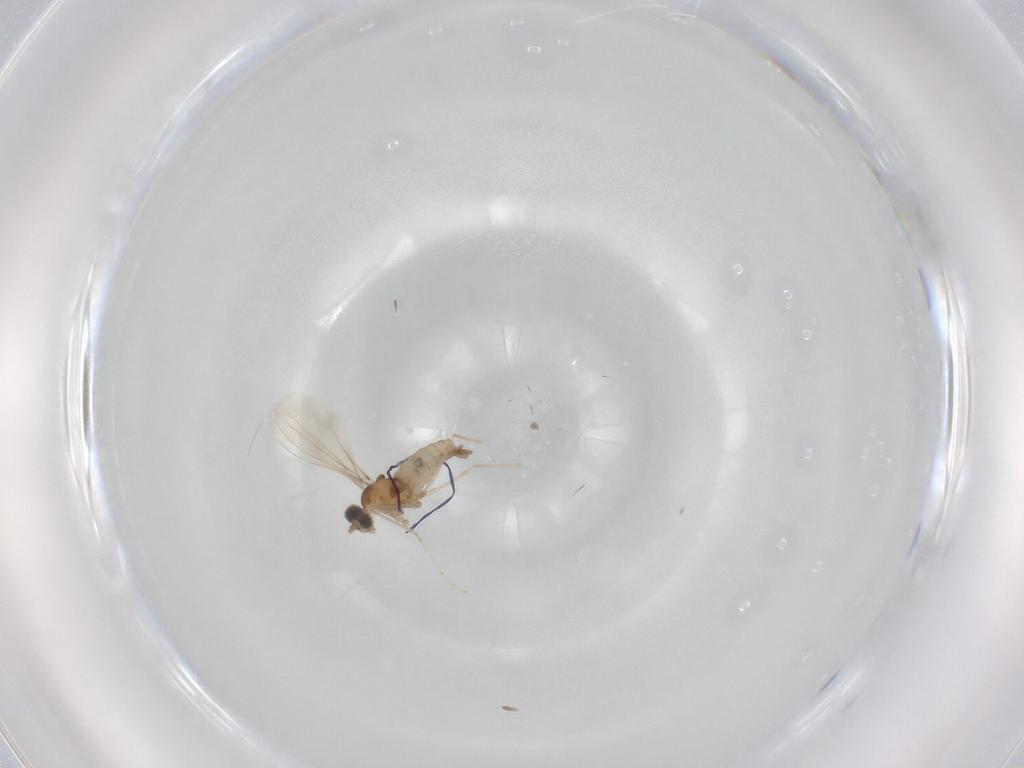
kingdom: Animalia
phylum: Arthropoda
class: Insecta
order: Diptera
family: Cecidomyiidae
